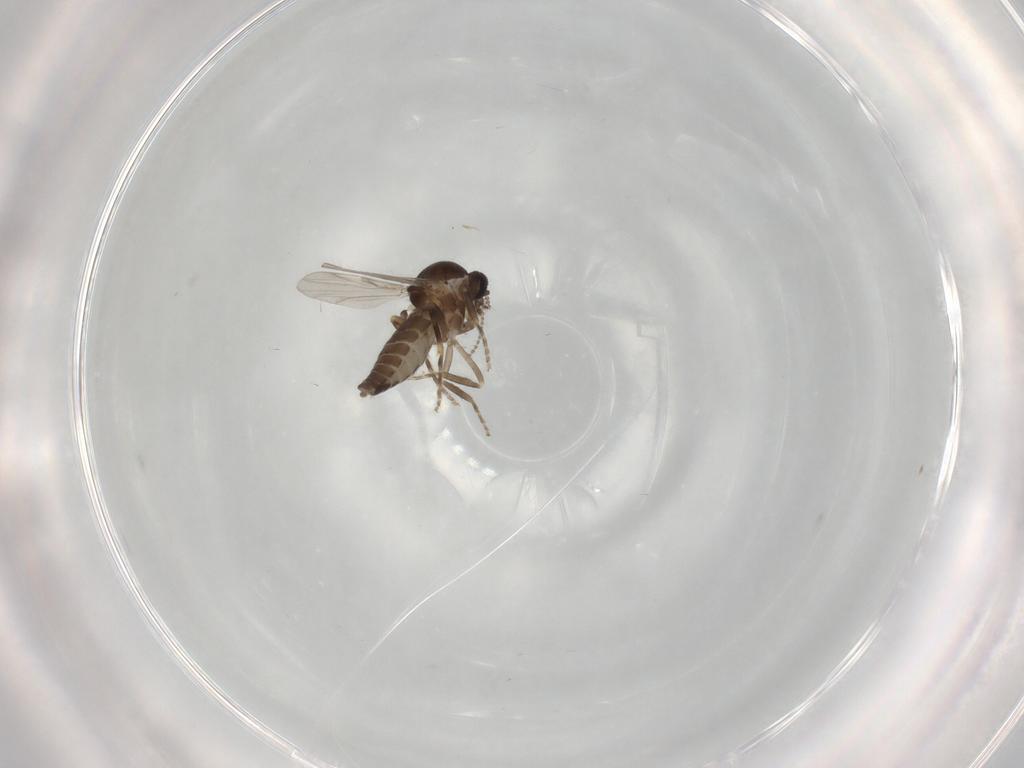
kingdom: Animalia
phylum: Arthropoda
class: Insecta
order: Diptera
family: Ceratopogonidae
